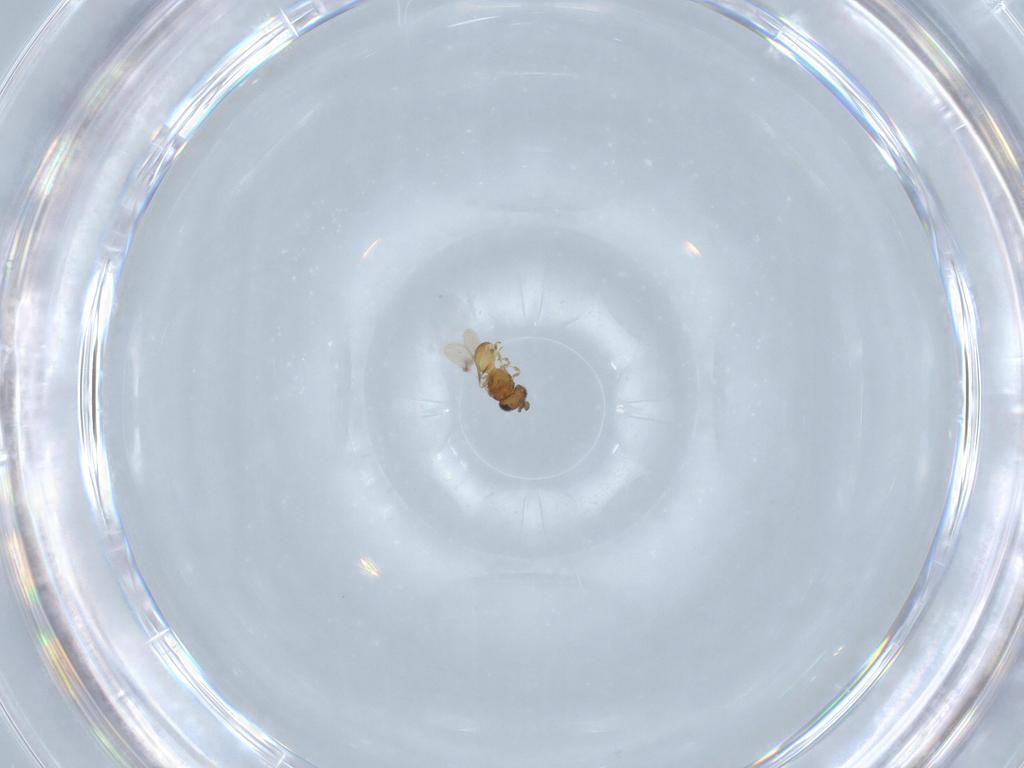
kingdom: Animalia
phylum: Arthropoda
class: Insecta
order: Hymenoptera
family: Scelionidae
